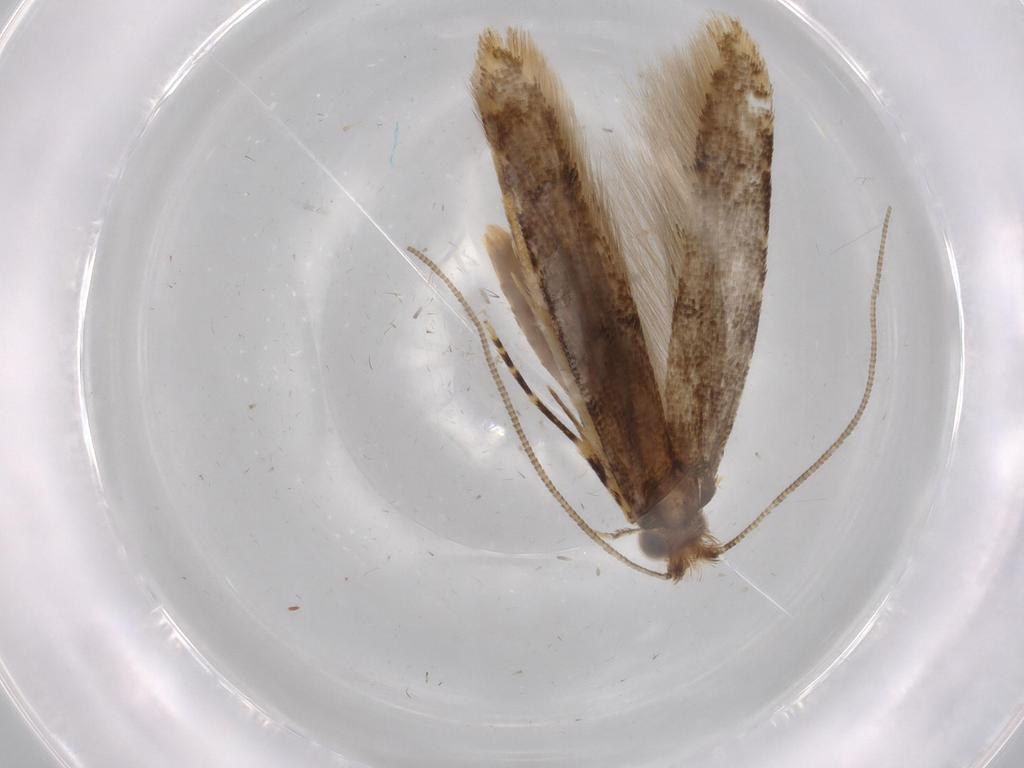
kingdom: Animalia
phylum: Arthropoda
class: Insecta
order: Lepidoptera
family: Tineidae
